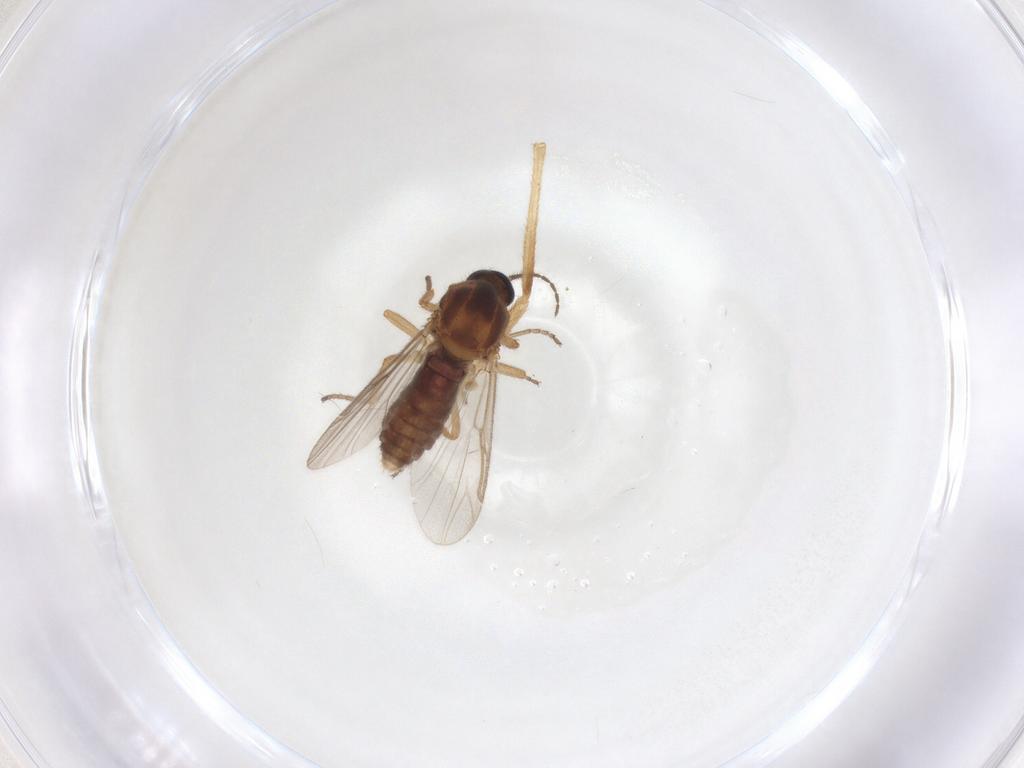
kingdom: Animalia
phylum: Arthropoda
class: Insecta
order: Diptera
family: Ceratopogonidae
